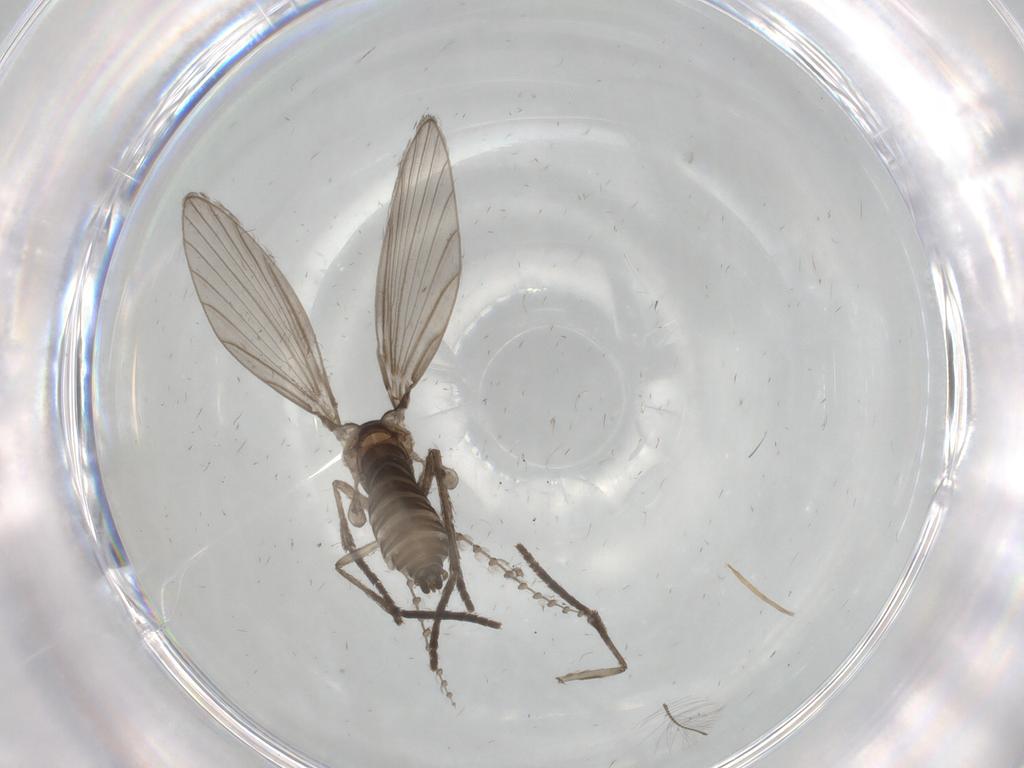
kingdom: Animalia
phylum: Arthropoda
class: Insecta
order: Diptera
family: Psychodidae
